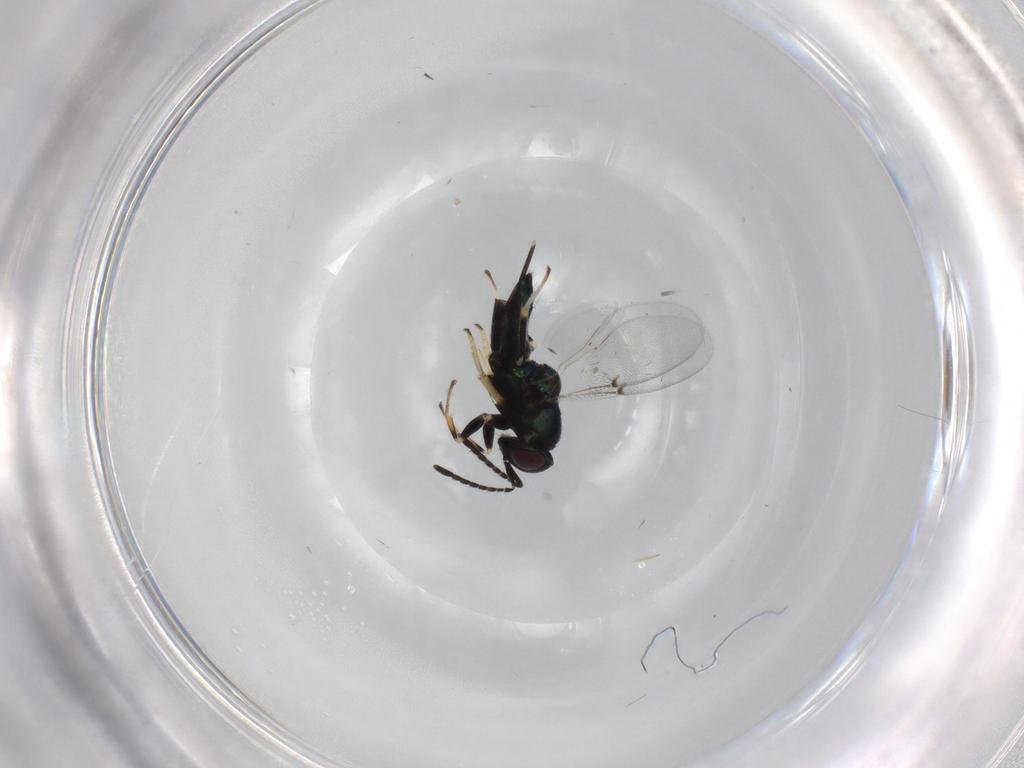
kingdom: Animalia
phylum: Arthropoda
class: Insecta
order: Hymenoptera
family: Encyrtidae
